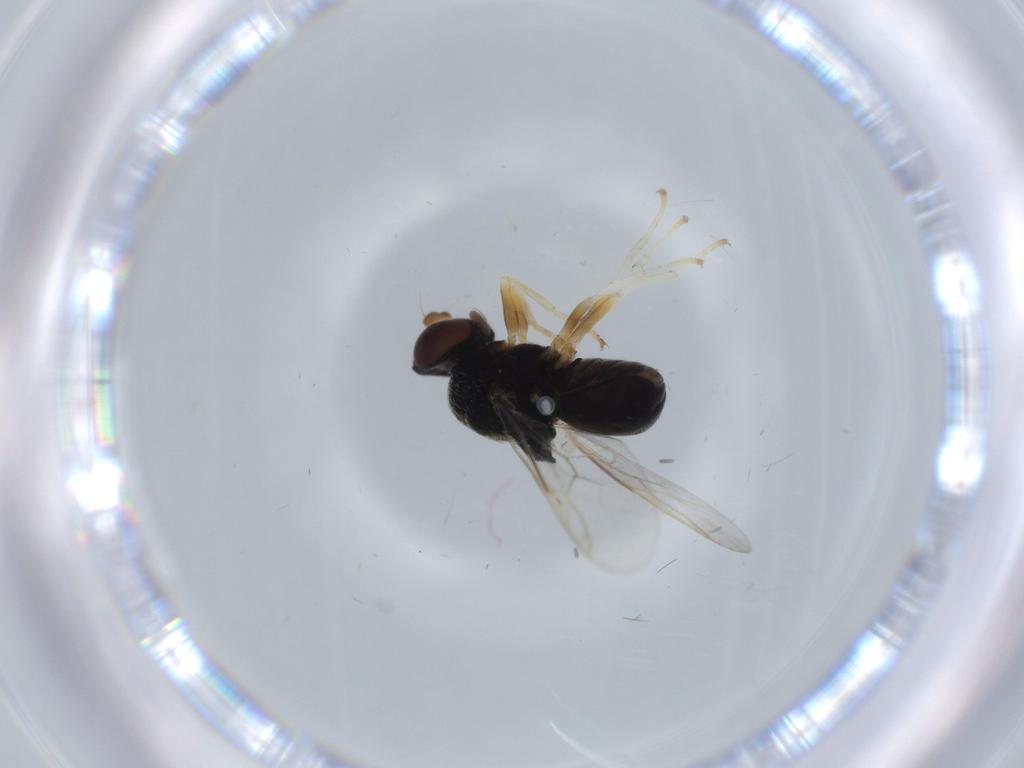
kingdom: Animalia
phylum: Arthropoda
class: Insecta
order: Diptera
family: Stratiomyidae
